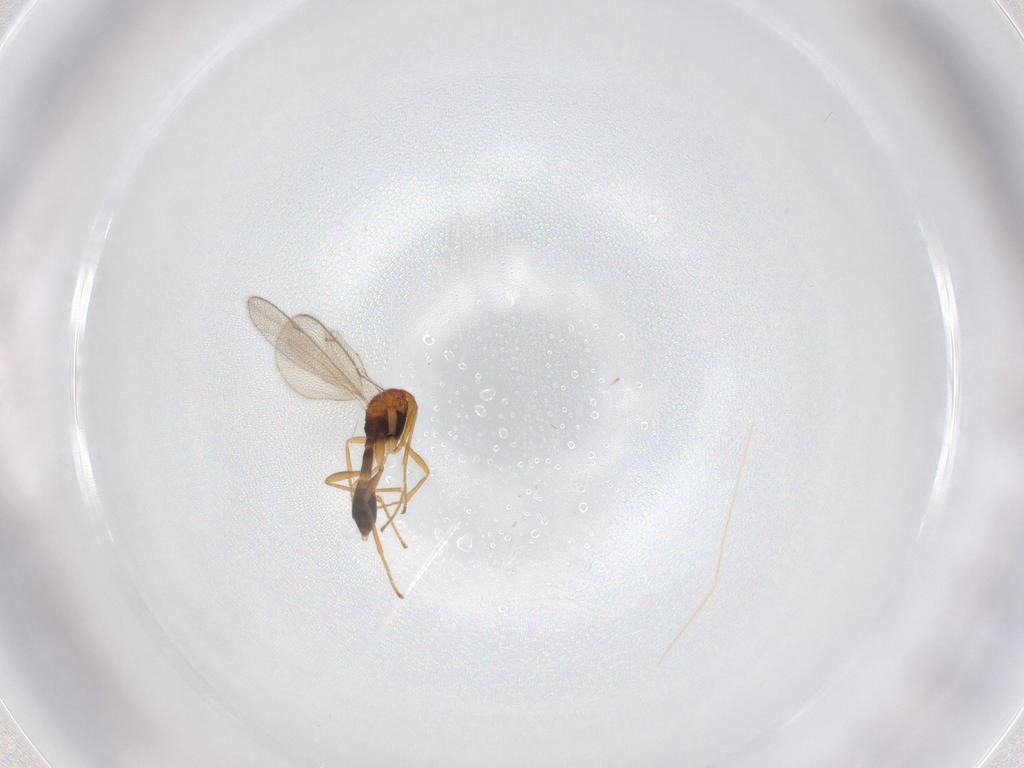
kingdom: Animalia
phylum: Arthropoda
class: Insecta
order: Hymenoptera
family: Pteromalidae
